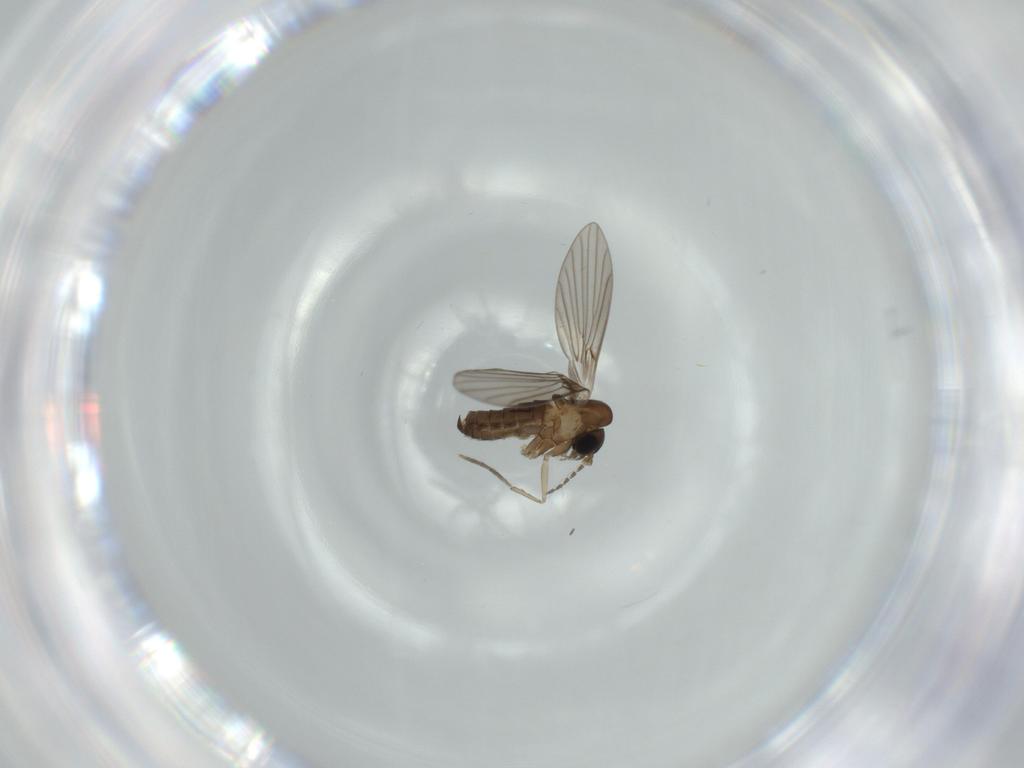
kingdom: Animalia
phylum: Arthropoda
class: Insecta
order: Diptera
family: Psychodidae
